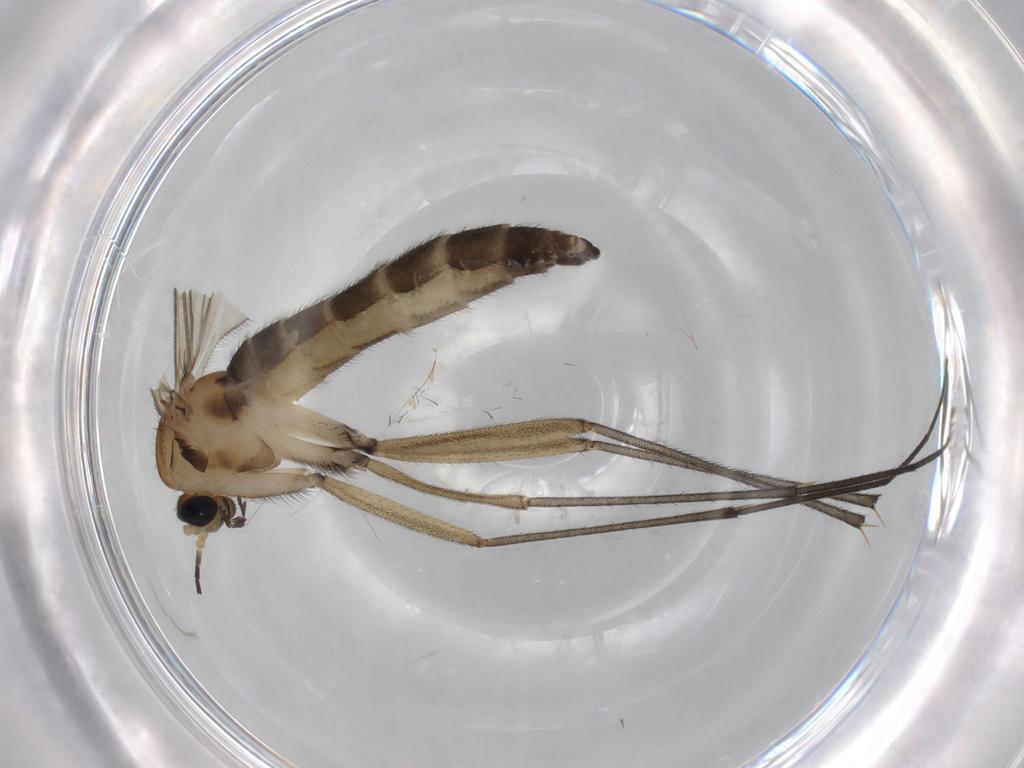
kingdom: Animalia
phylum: Arthropoda
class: Insecta
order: Diptera
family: Sciaridae
